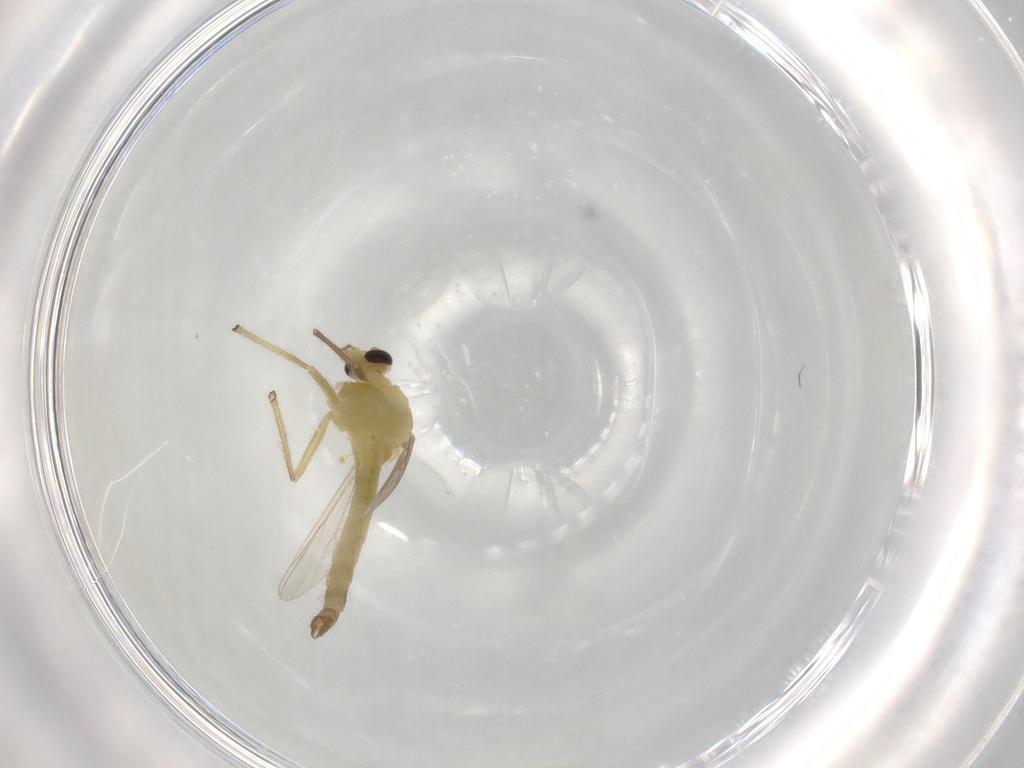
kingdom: Animalia
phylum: Arthropoda
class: Insecta
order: Diptera
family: Chironomidae
